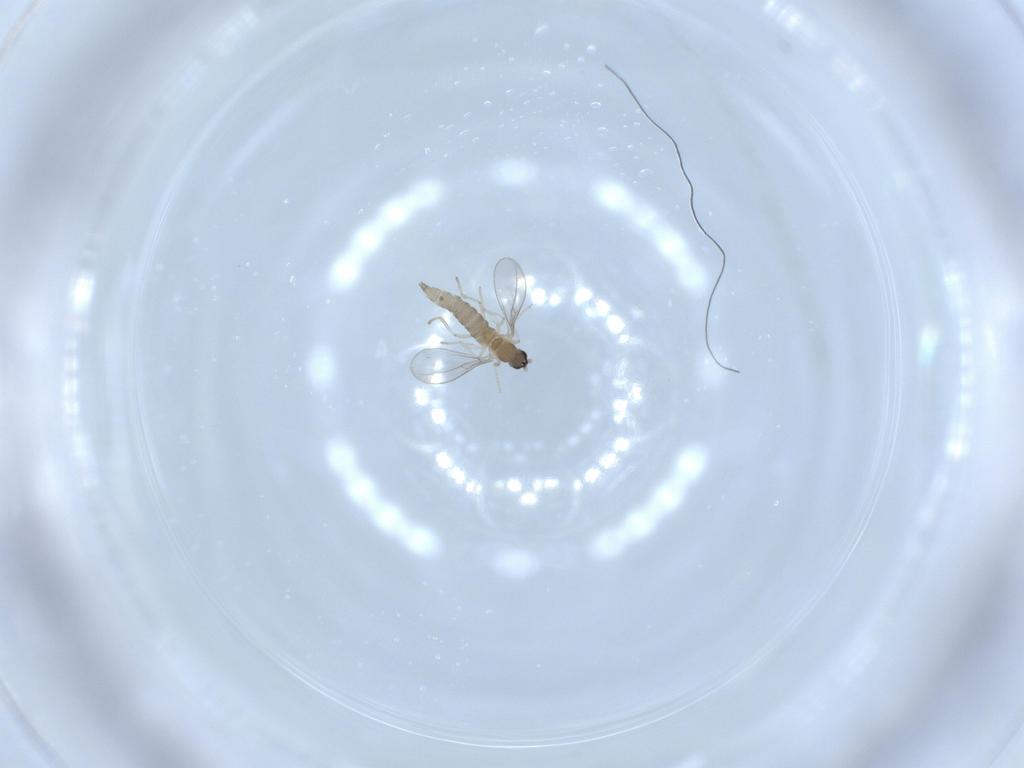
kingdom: Animalia
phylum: Arthropoda
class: Insecta
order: Diptera
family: Cecidomyiidae
